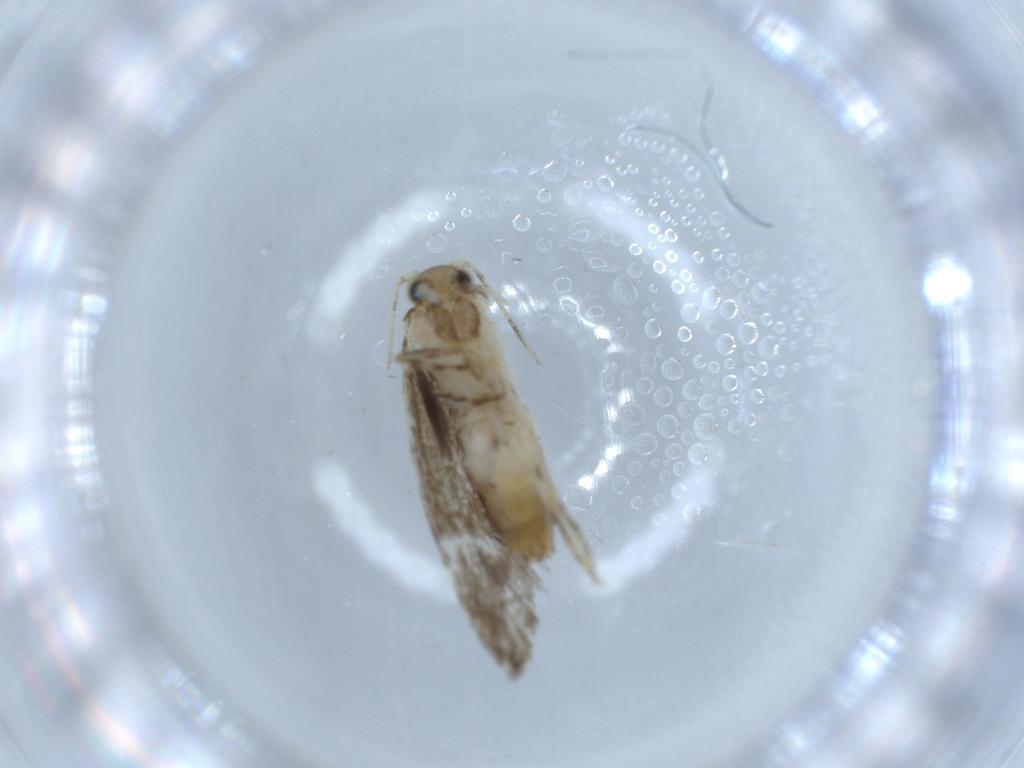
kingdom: Animalia
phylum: Arthropoda
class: Insecta
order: Lepidoptera
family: Tineidae
